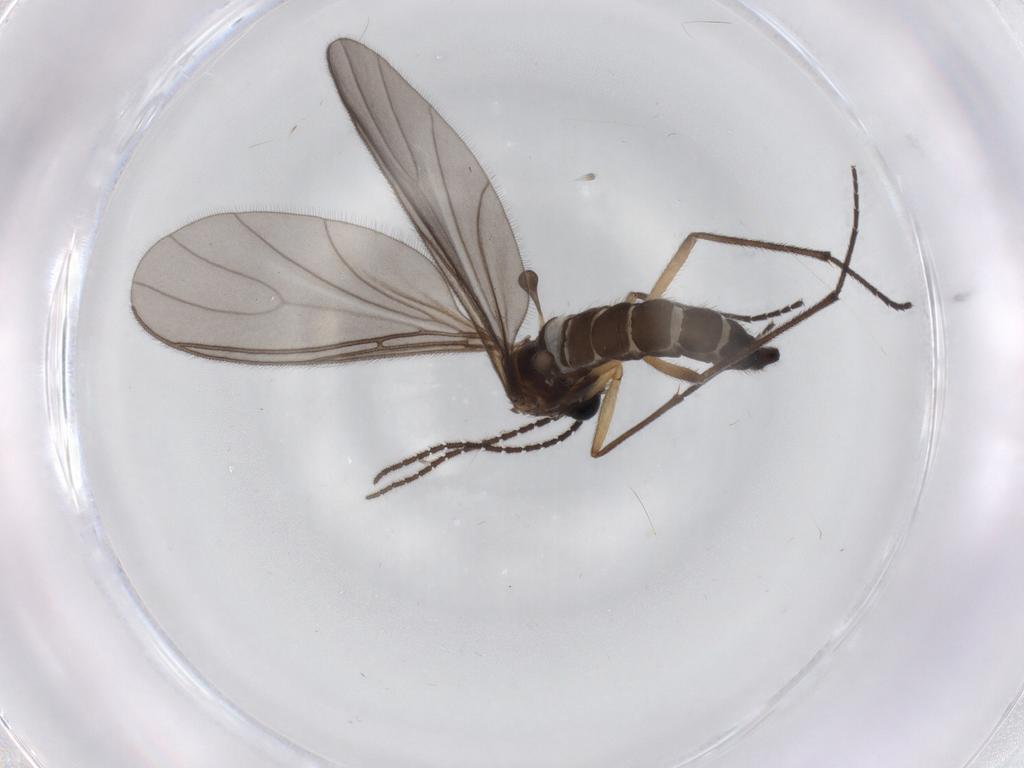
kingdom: Animalia
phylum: Arthropoda
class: Insecta
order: Diptera
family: Sciaridae
